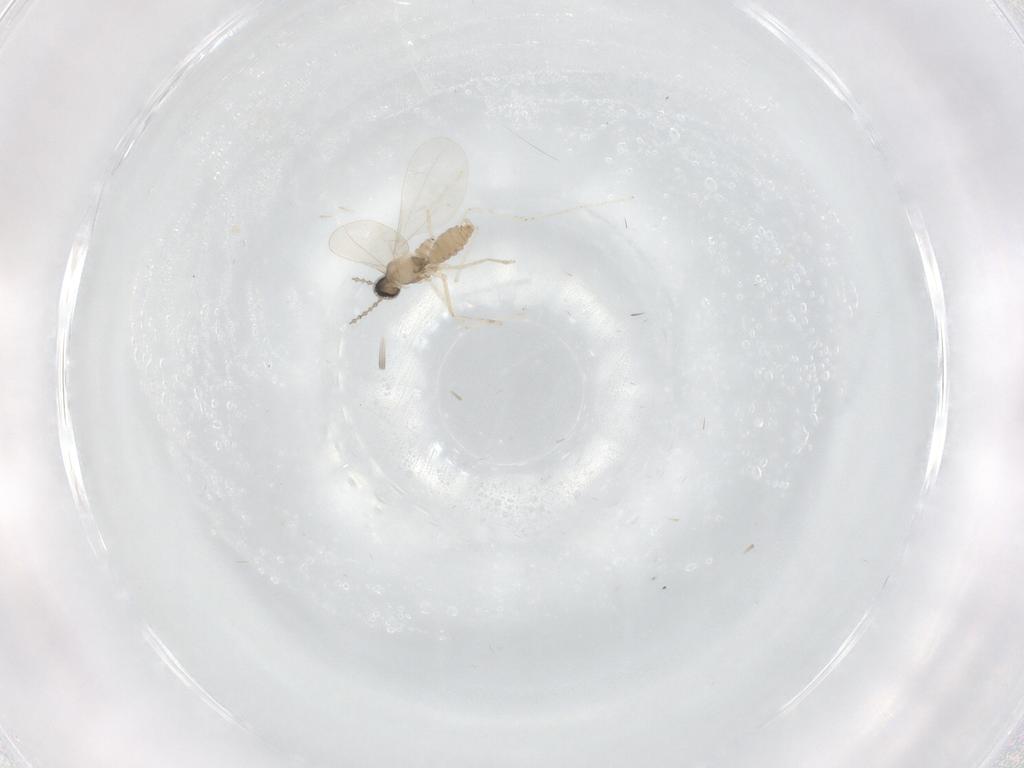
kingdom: Animalia
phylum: Arthropoda
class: Insecta
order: Diptera
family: Cecidomyiidae
